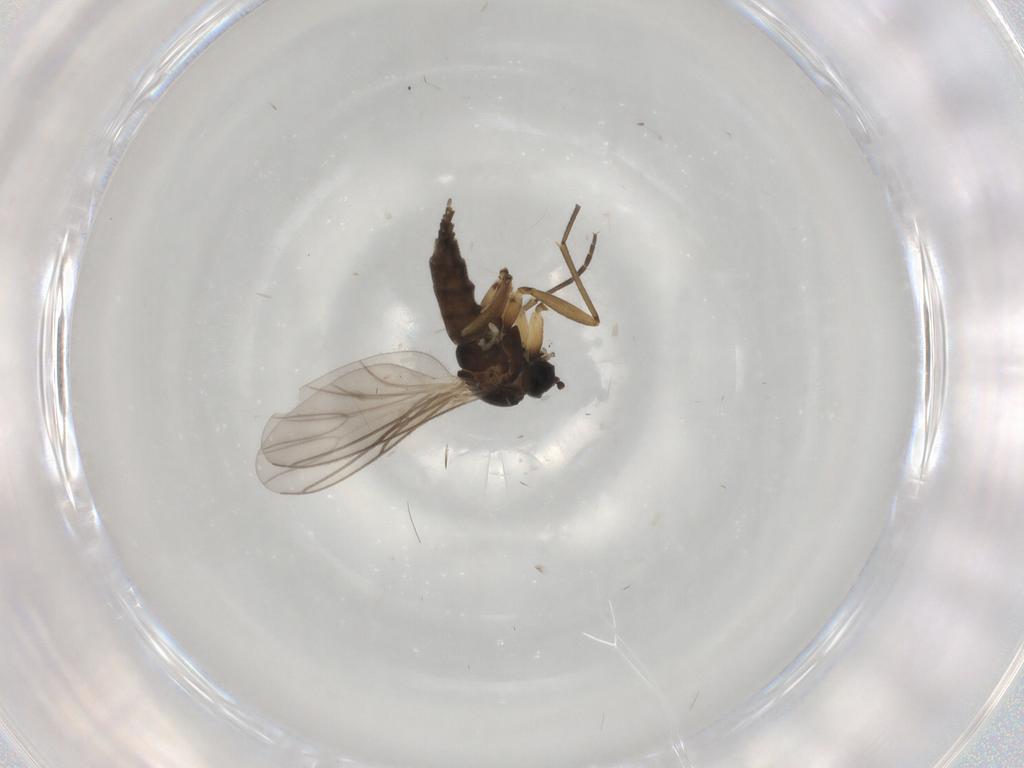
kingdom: Animalia
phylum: Arthropoda
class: Insecta
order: Diptera
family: Sciaridae
